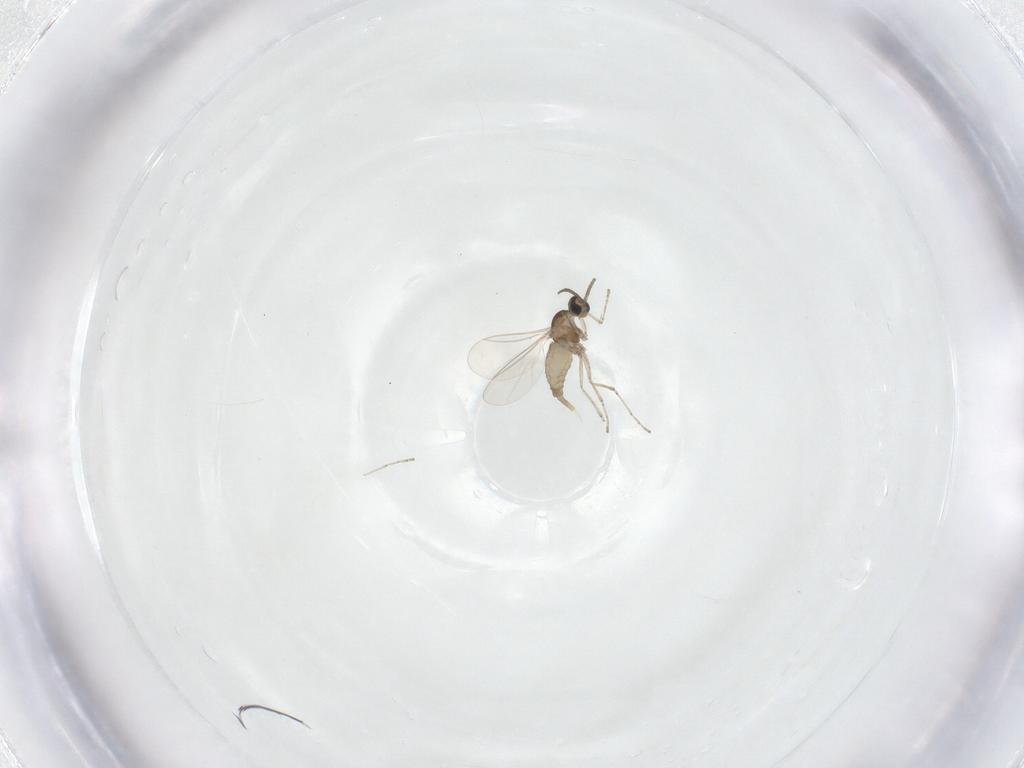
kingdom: Animalia
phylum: Arthropoda
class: Insecta
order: Diptera
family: Cecidomyiidae
